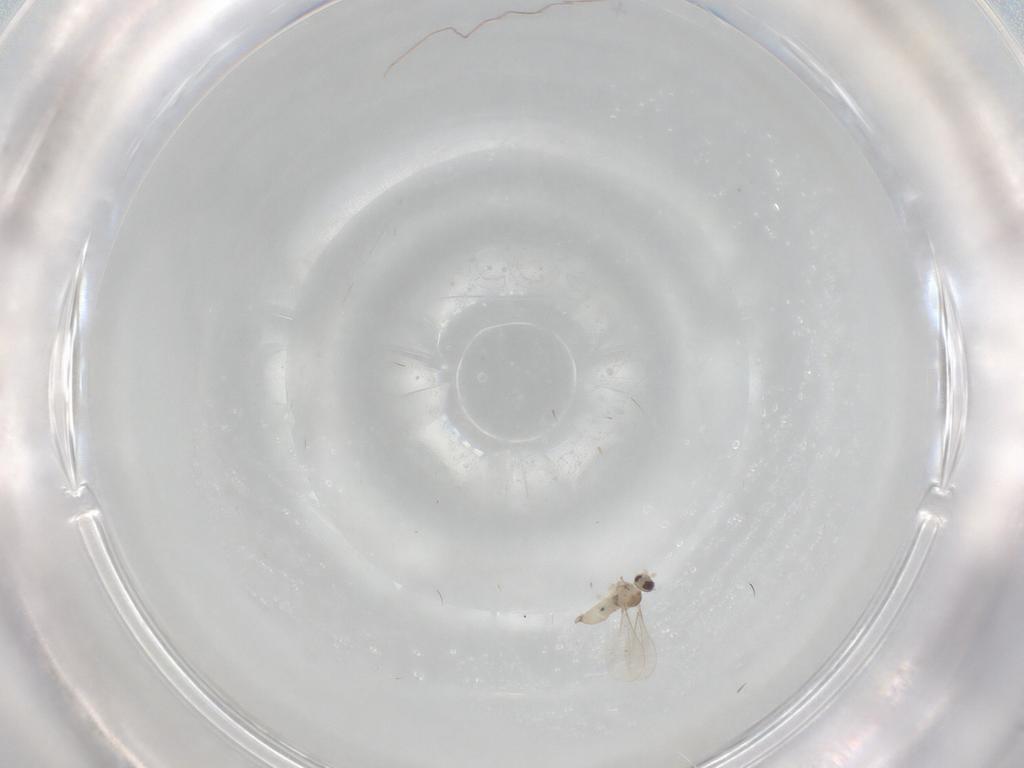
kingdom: Animalia
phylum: Arthropoda
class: Insecta
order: Diptera
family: Cecidomyiidae
